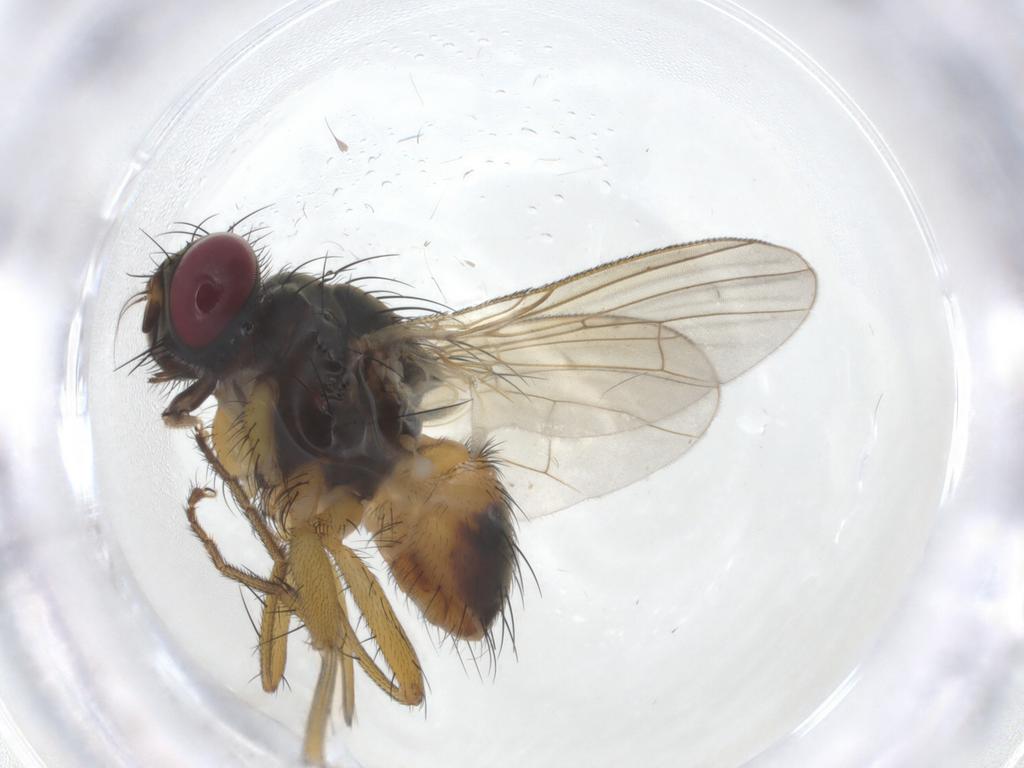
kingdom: Animalia
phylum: Arthropoda
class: Insecta
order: Diptera
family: Muscidae
